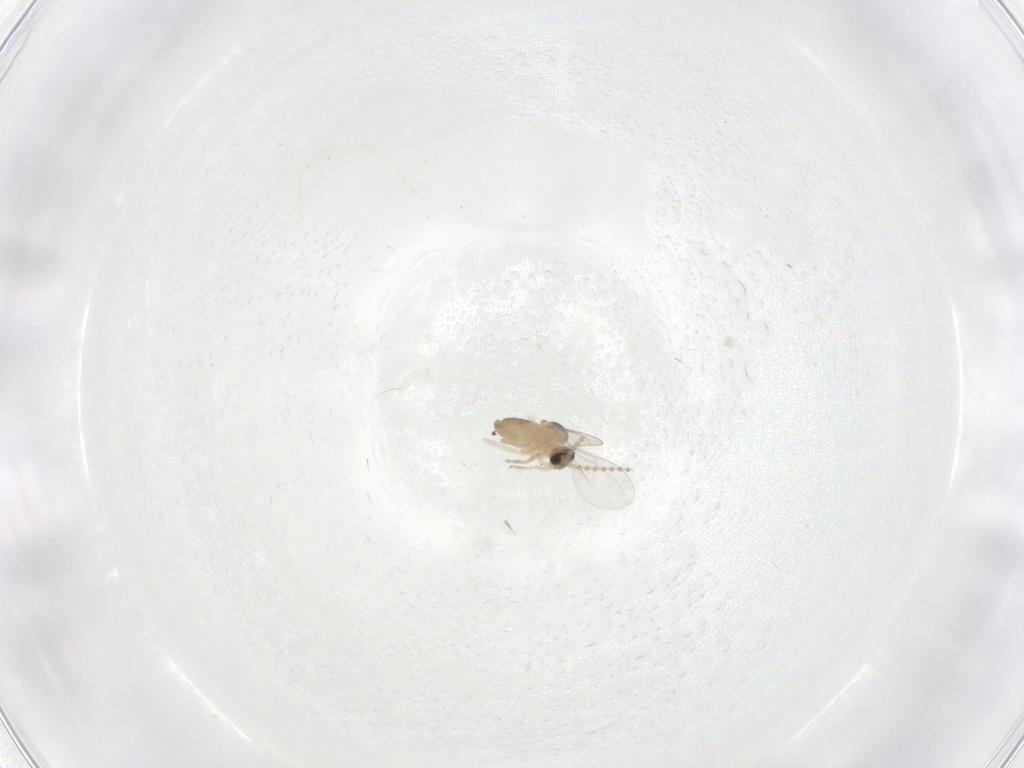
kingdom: Animalia
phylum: Arthropoda
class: Insecta
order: Diptera
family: Cecidomyiidae
